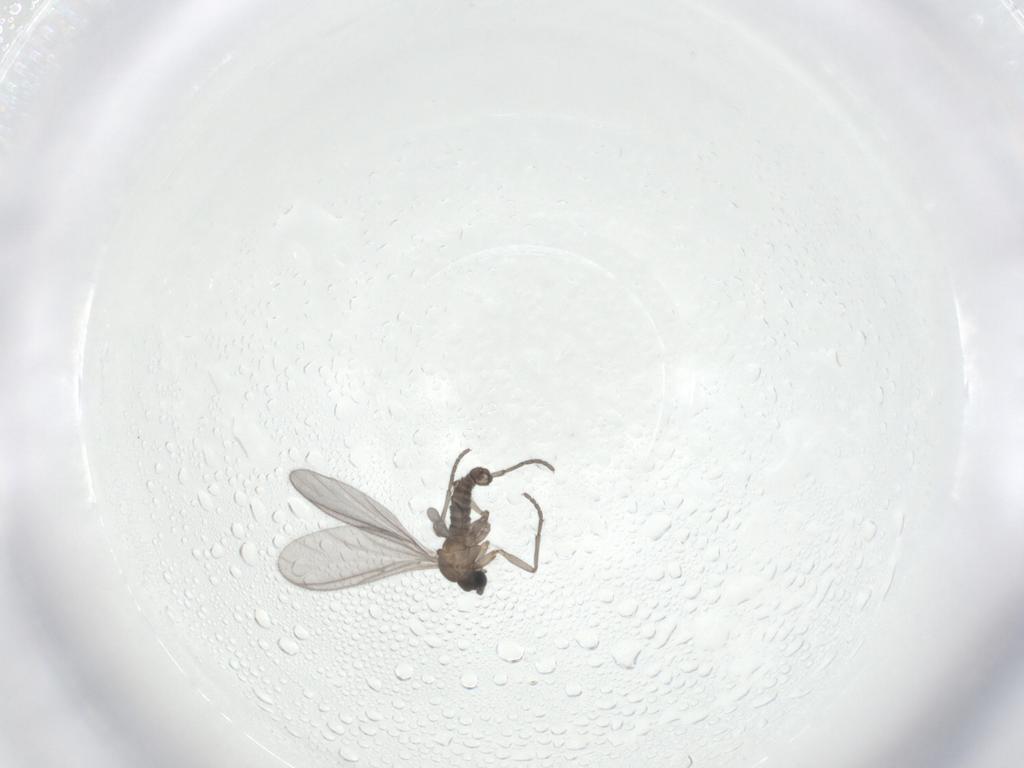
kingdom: Animalia
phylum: Arthropoda
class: Insecta
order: Diptera
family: Sciaridae
